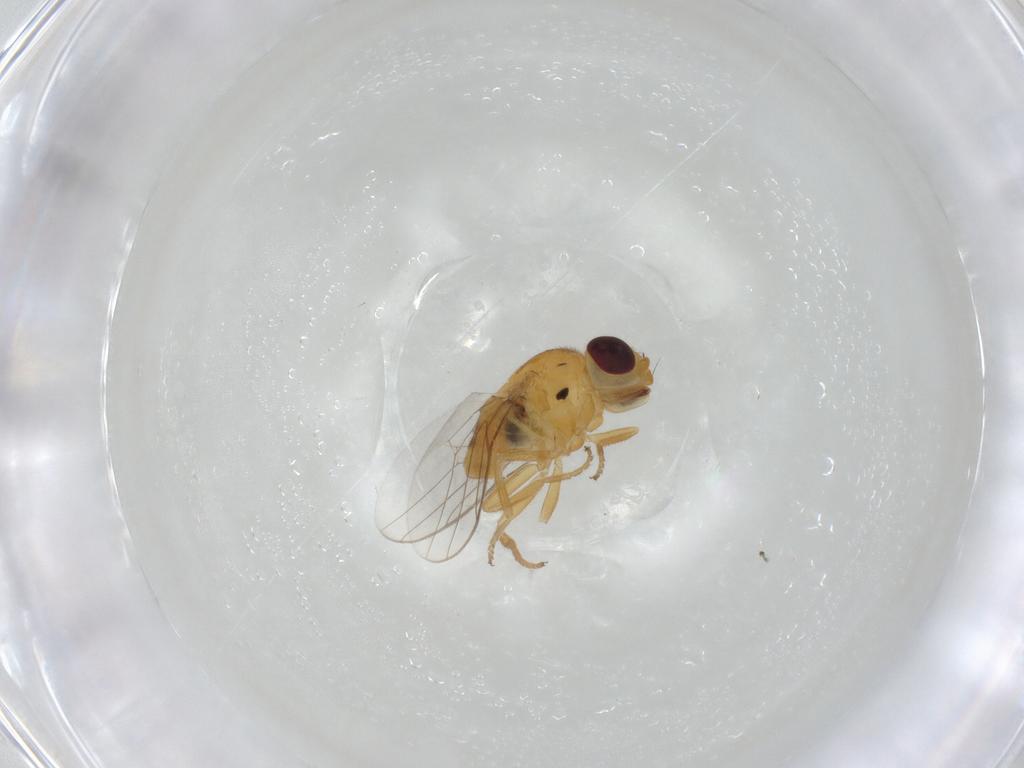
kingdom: Animalia
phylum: Arthropoda
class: Insecta
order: Diptera
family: Chloropidae
